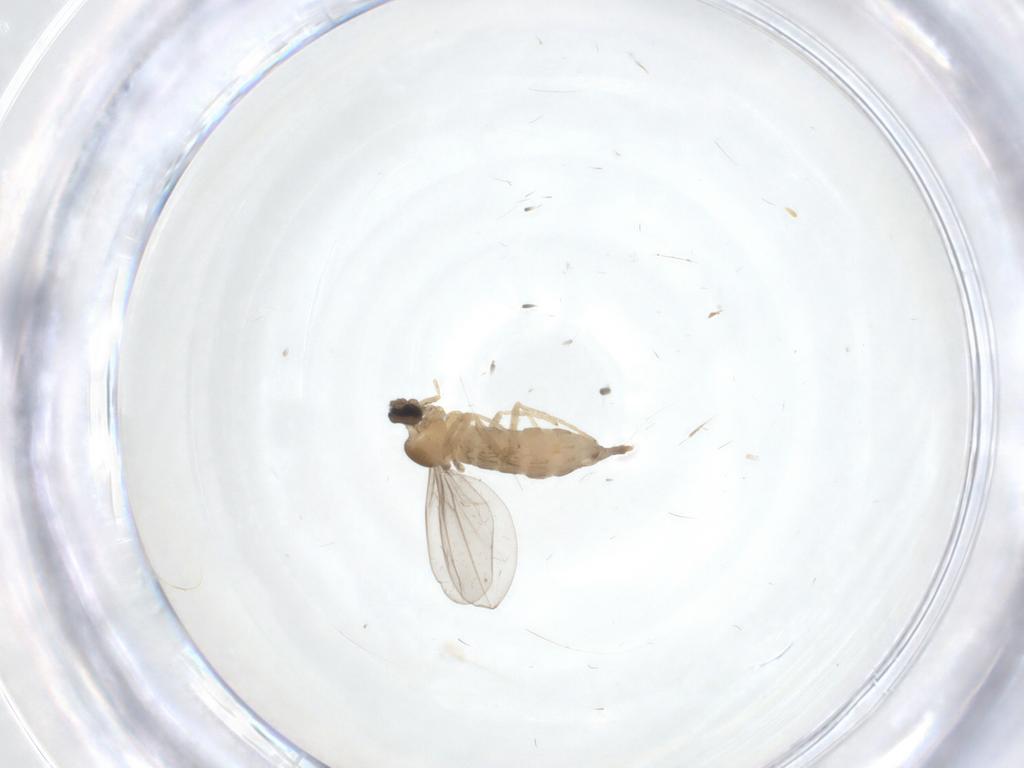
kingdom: Animalia
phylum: Arthropoda
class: Insecta
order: Diptera
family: Cecidomyiidae
